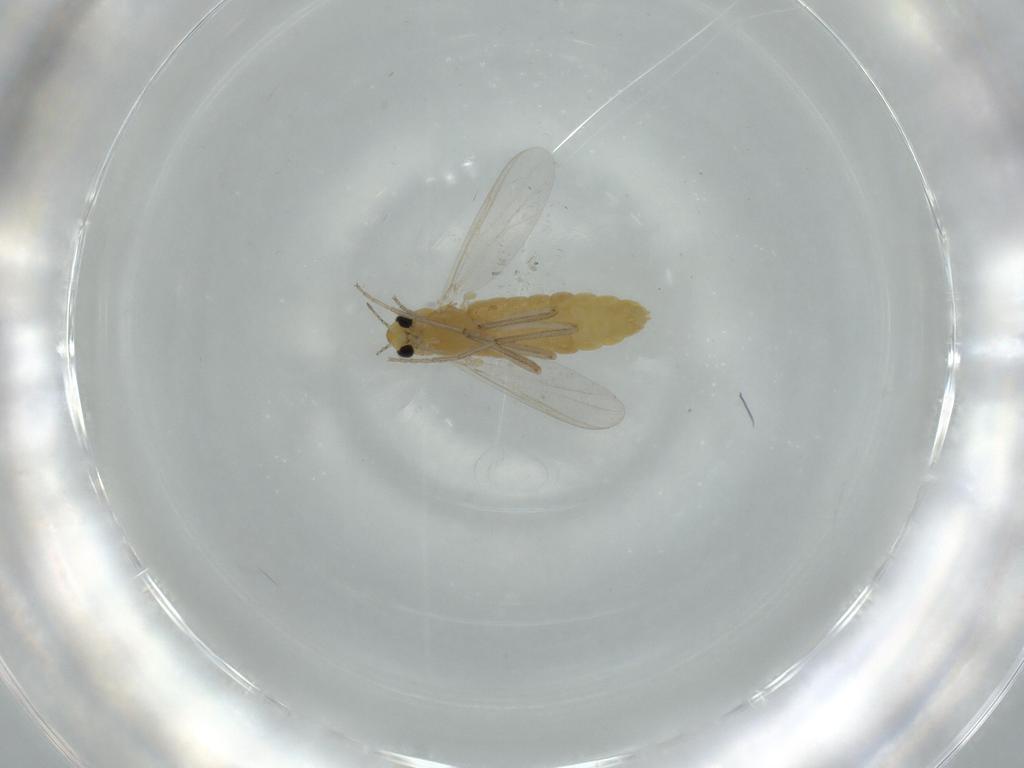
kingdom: Animalia
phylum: Arthropoda
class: Insecta
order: Diptera
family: Chironomidae
